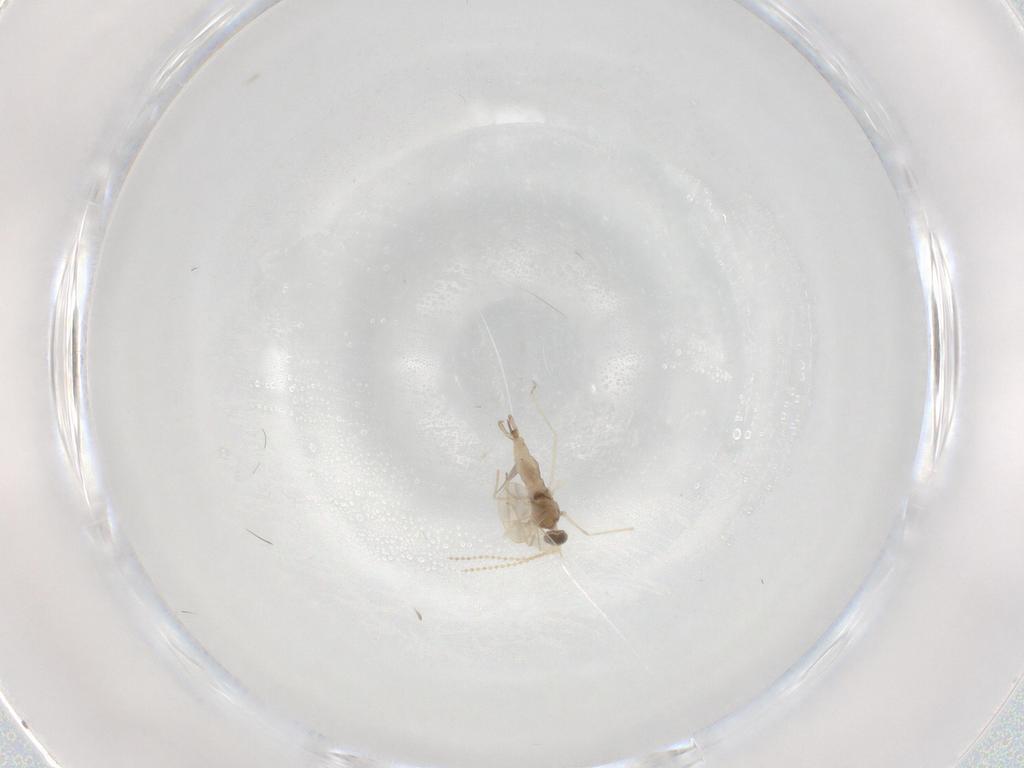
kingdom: Animalia
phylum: Arthropoda
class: Insecta
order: Diptera
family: Cecidomyiidae
